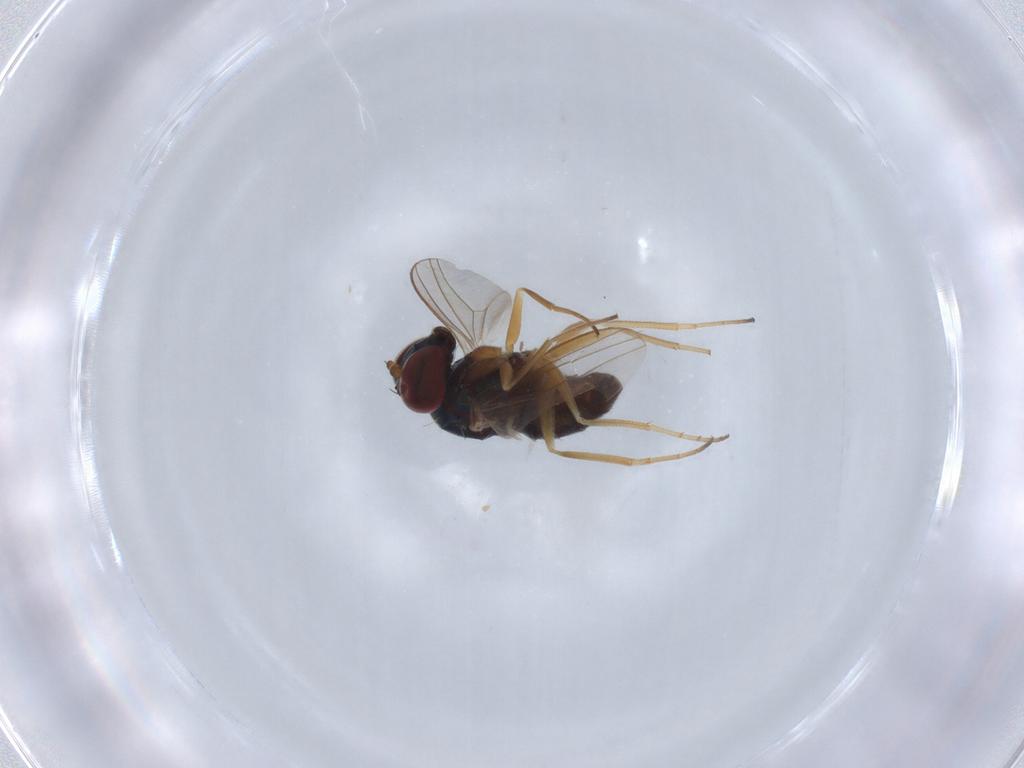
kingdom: Animalia
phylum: Arthropoda
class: Insecta
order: Diptera
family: Dolichopodidae
